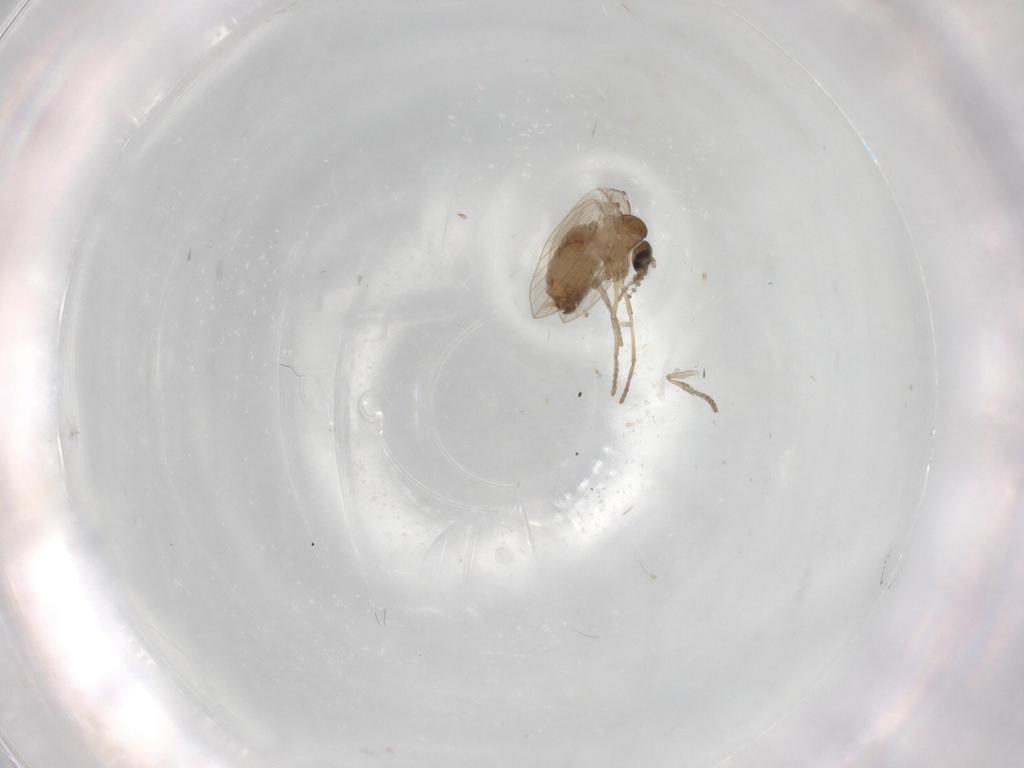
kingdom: Animalia
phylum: Arthropoda
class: Insecta
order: Diptera
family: Psychodidae
